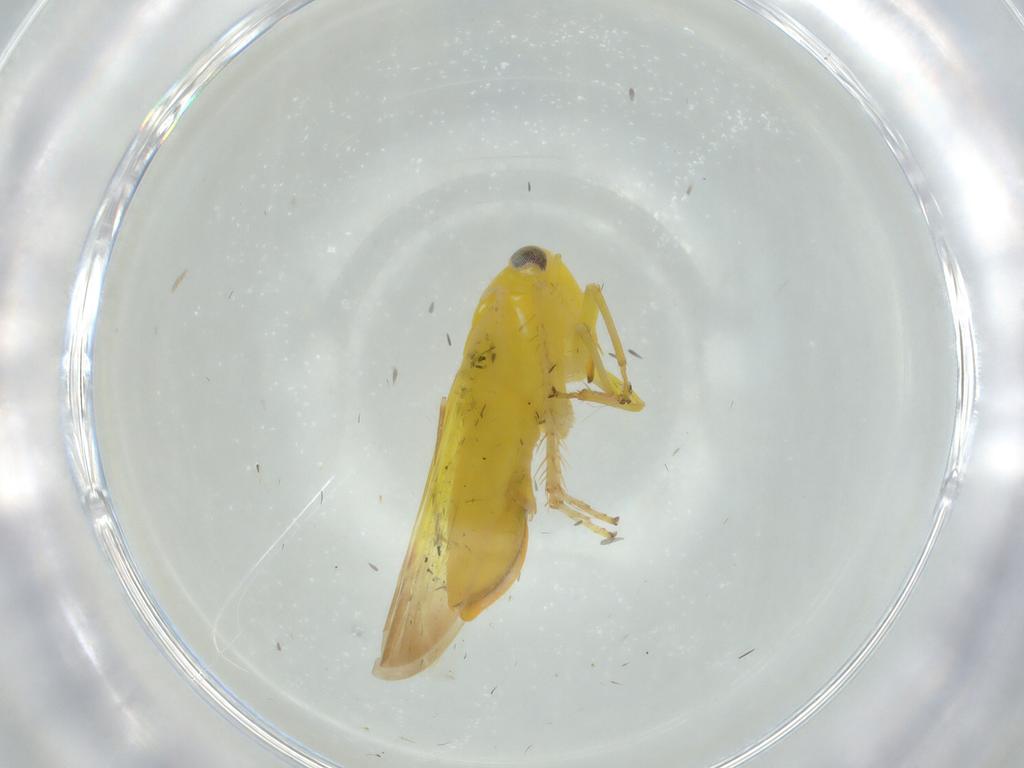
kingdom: Animalia
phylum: Arthropoda
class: Insecta
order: Hemiptera
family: Cicadellidae
